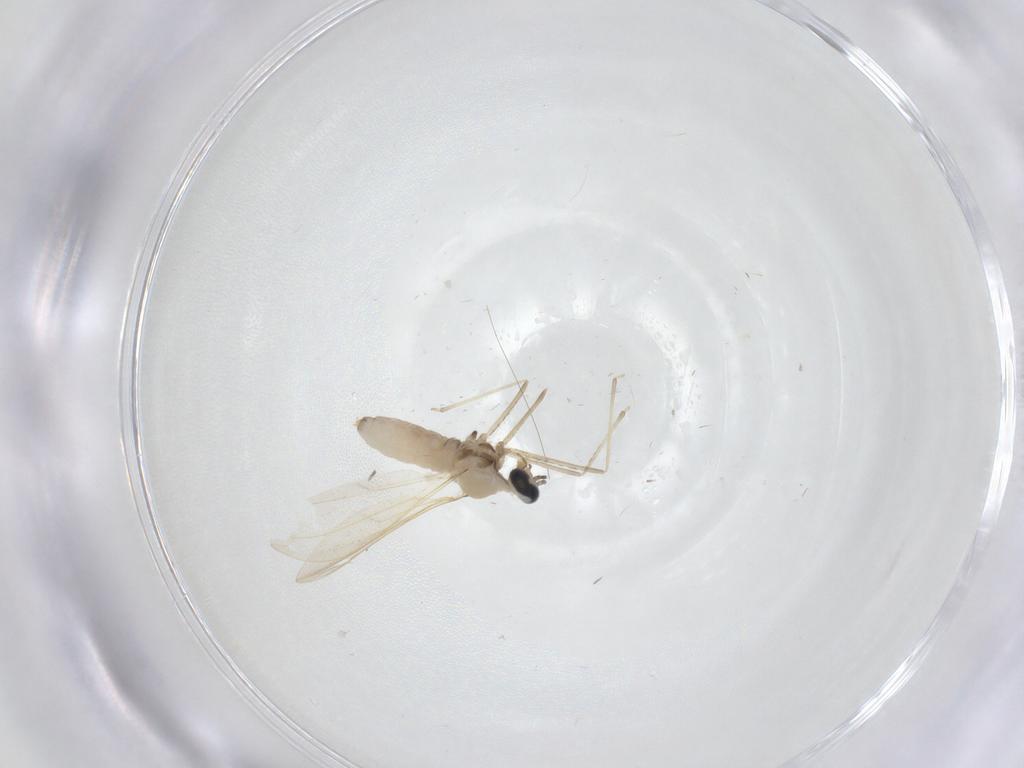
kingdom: Animalia
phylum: Arthropoda
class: Insecta
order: Diptera
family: Cecidomyiidae
